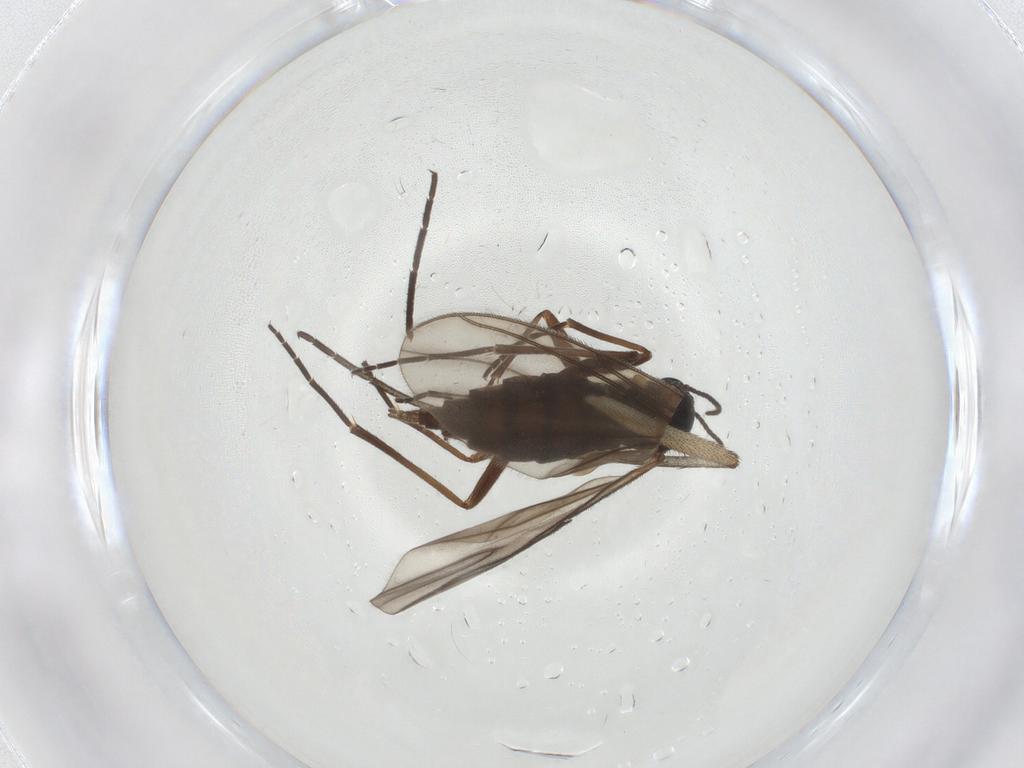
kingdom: Animalia
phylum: Arthropoda
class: Insecta
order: Diptera
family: Sciaridae
